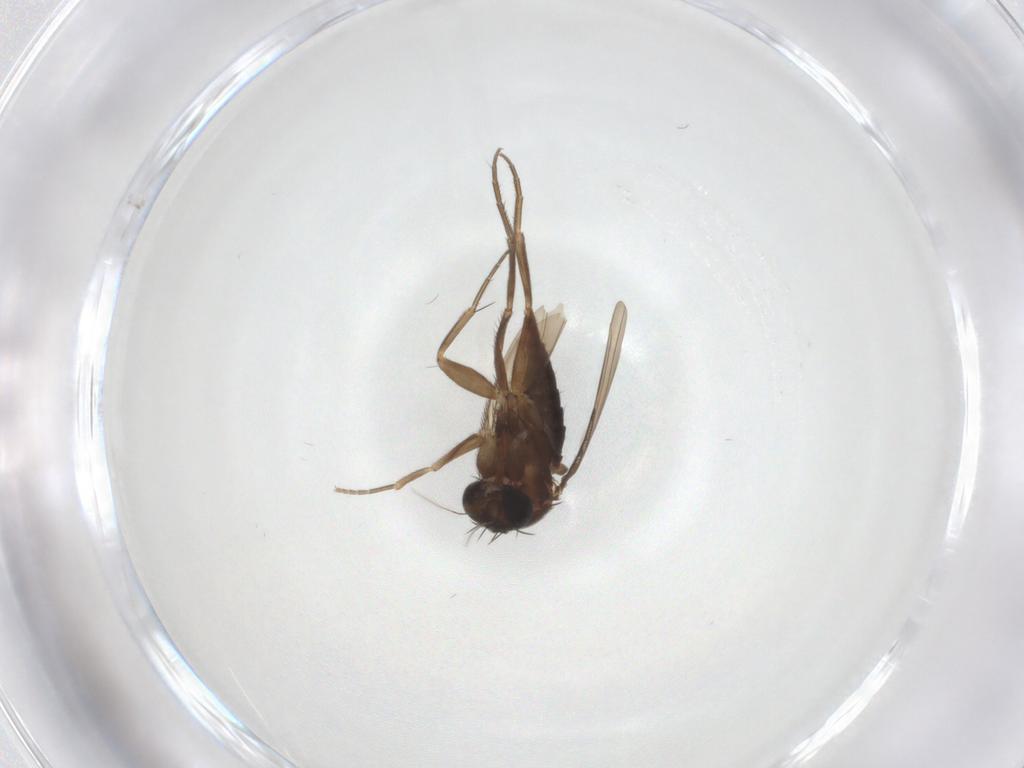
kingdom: Animalia
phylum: Arthropoda
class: Insecta
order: Diptera
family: Phoridae
